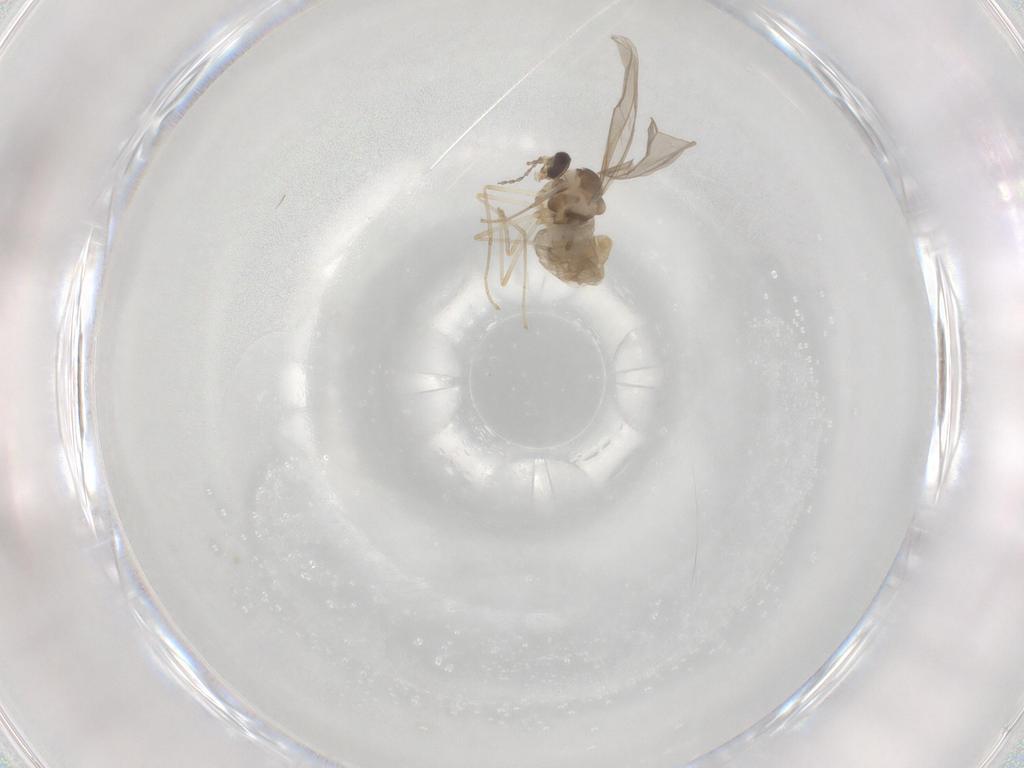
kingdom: Animalia
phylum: Arthropoda
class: Insecta
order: Diptera
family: Cecidomyiidae
